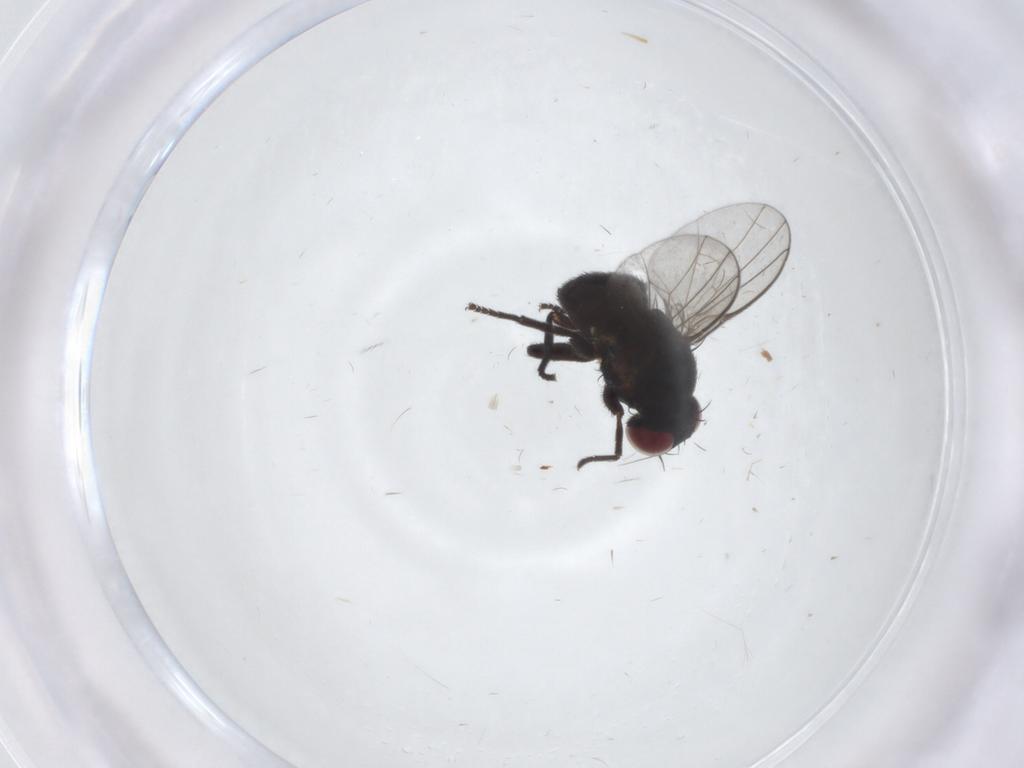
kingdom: Animalia
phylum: Arthropoda
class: Insecta
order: Diptera
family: Agromyzidae
